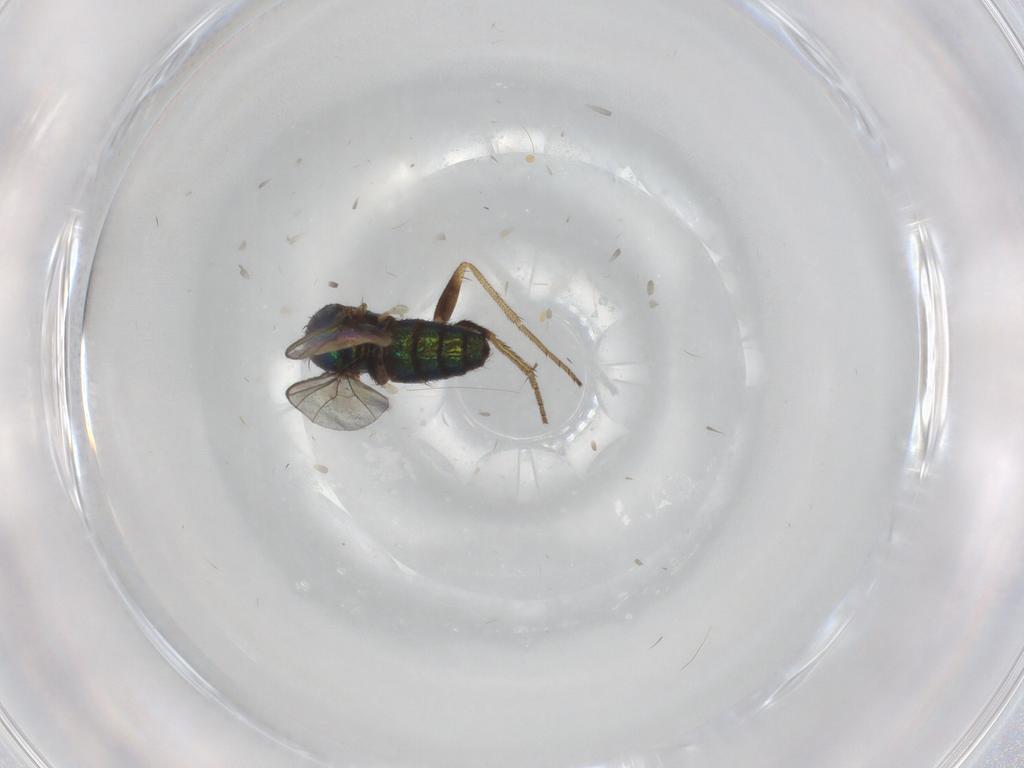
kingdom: Animalia
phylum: Arthropoda
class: Insecta
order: Diptera
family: Dolichopodidae
